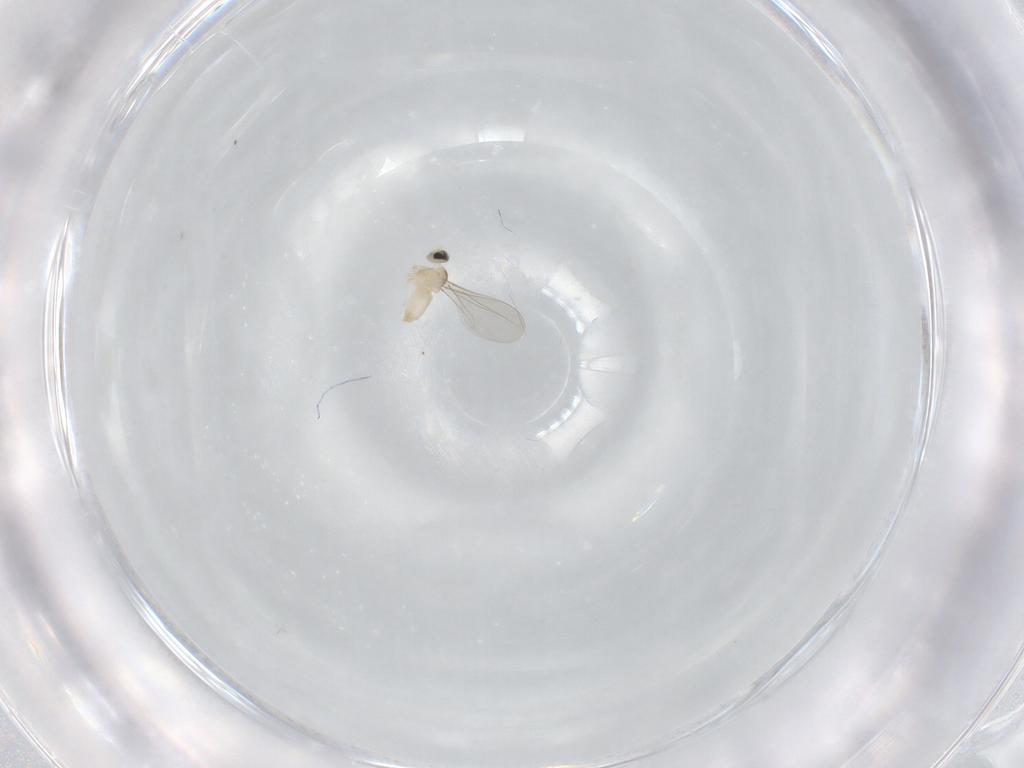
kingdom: Animalia
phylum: Arthropoda
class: Insecta
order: Diptera
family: Cecidomyiidae
